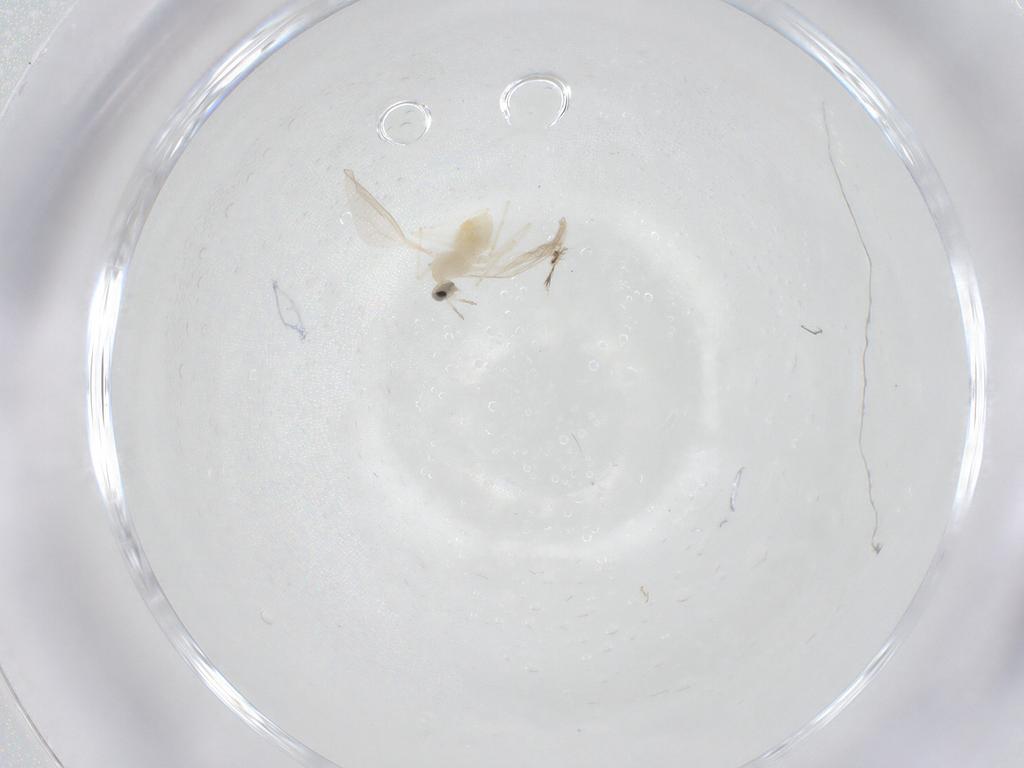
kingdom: Animalia
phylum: Arthropoda
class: Insecta
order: Diptera
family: Cecidomyiidae
